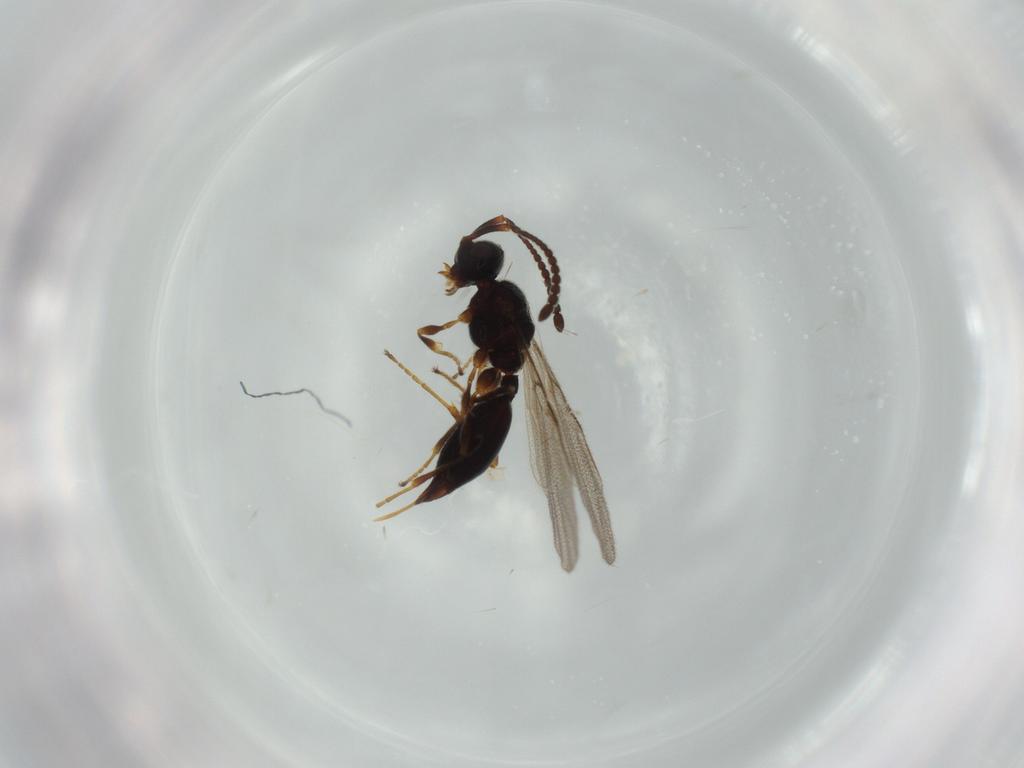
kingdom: Animalia
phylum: Arthropoda
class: Insecta
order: Hymenoptera
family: Braconidae
